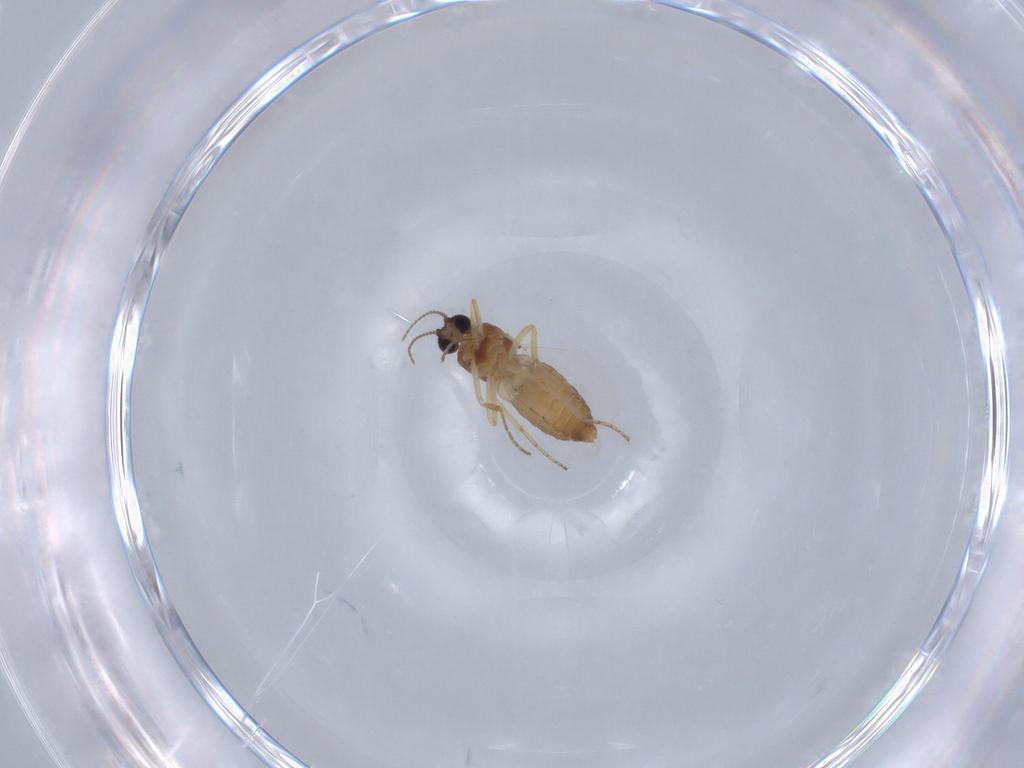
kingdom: Animalia
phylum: Arthropoda
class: Insecta
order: Diptera
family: Ceratopogonidae
